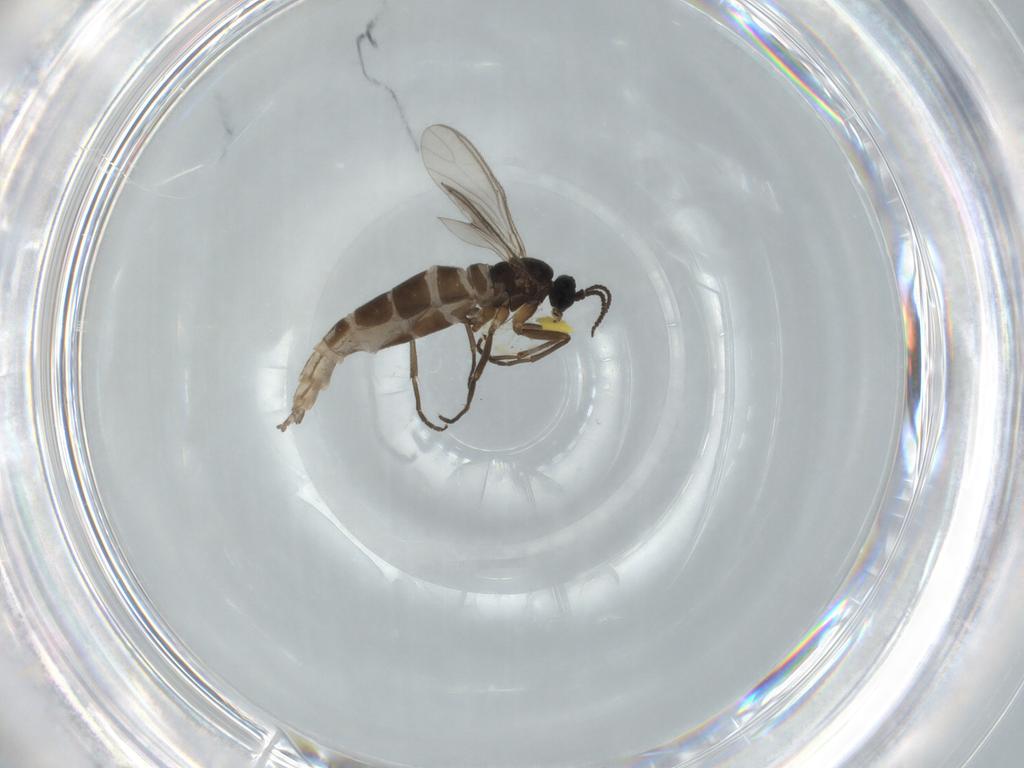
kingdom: Animalia
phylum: Arthropoda
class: Insecta
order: Diptera
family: Sciaridae
